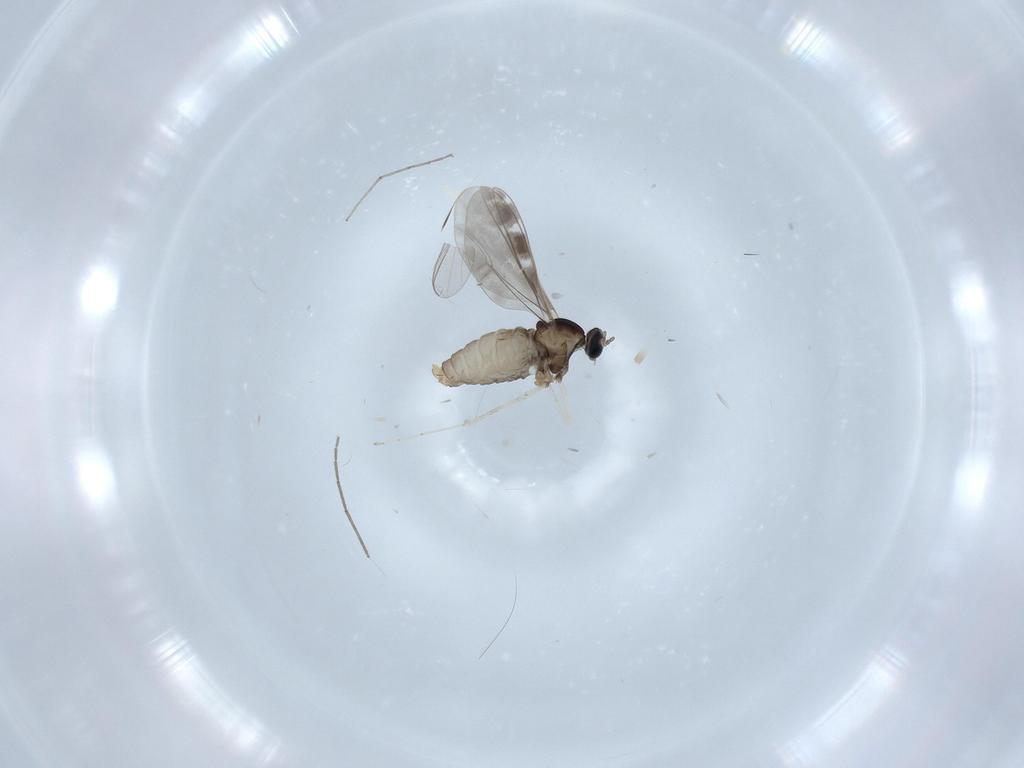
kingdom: Animalia
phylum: Arthropoda
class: Insecta
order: Diptera
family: Chironomidae
